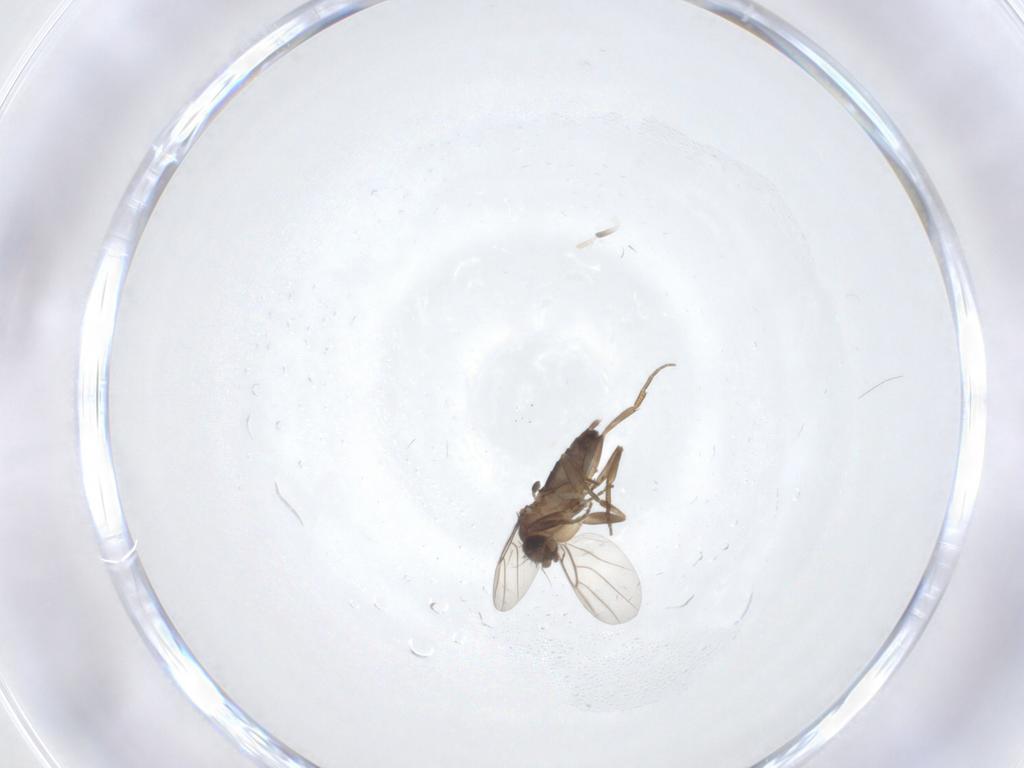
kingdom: Animalia
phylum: Arthropoda
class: Insecta
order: Diptera
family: Phoridae
